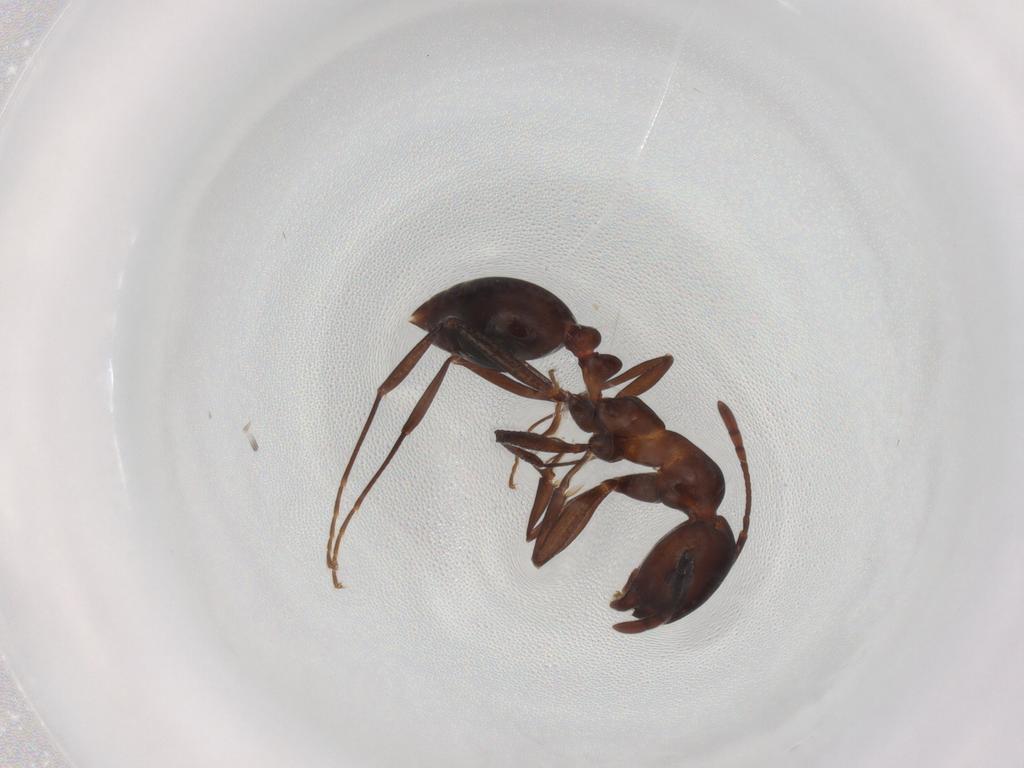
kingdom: Animalia
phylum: Arthropoda
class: Insecta
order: Hymenoptera
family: Formicidae
